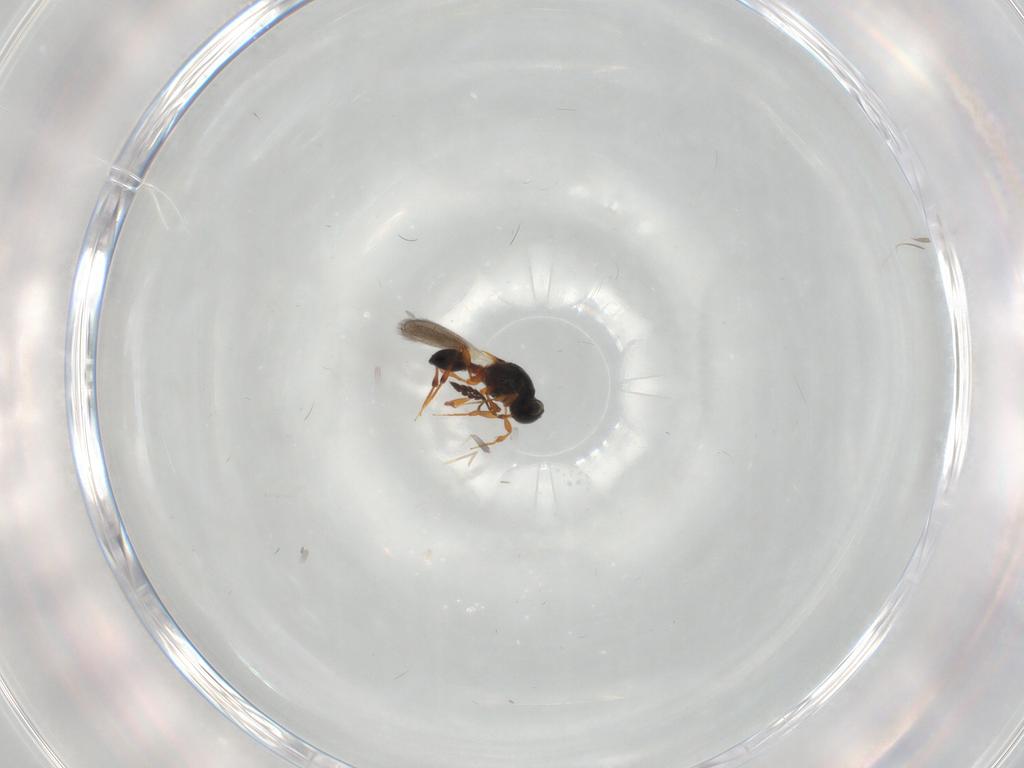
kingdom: Animalia
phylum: Arthropoda
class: Insecta
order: Hymenoptera
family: Platygastridae
